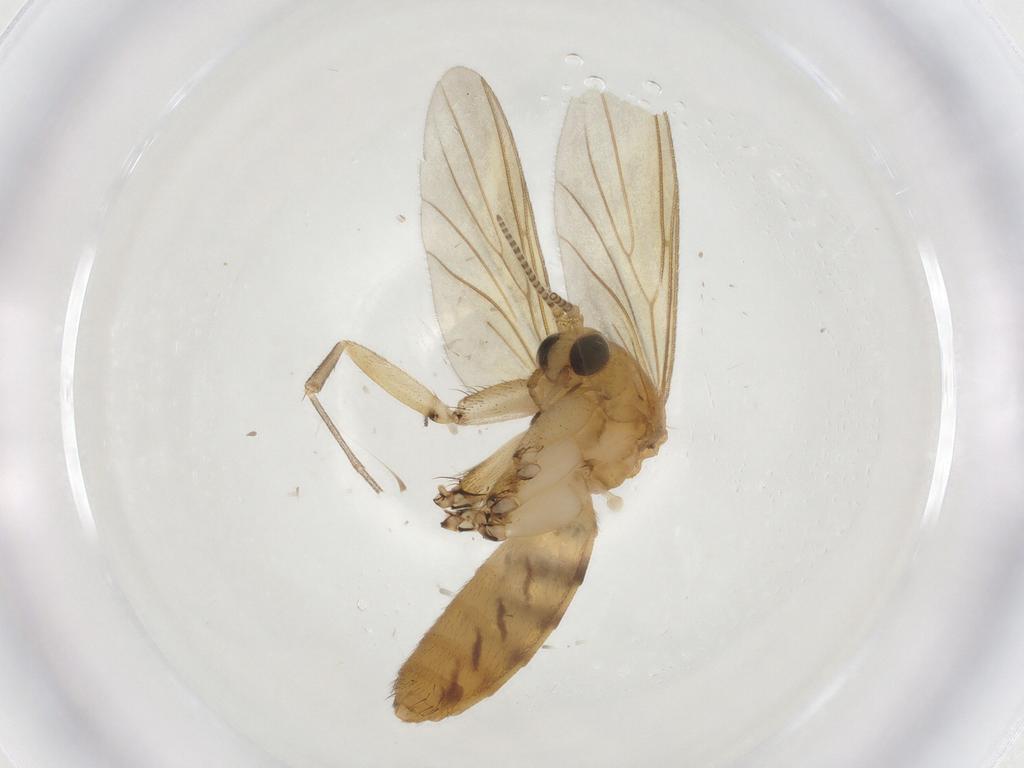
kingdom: Animalia
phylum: Arthropoda
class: Insecta
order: Diptera
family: Mycetophilidae
